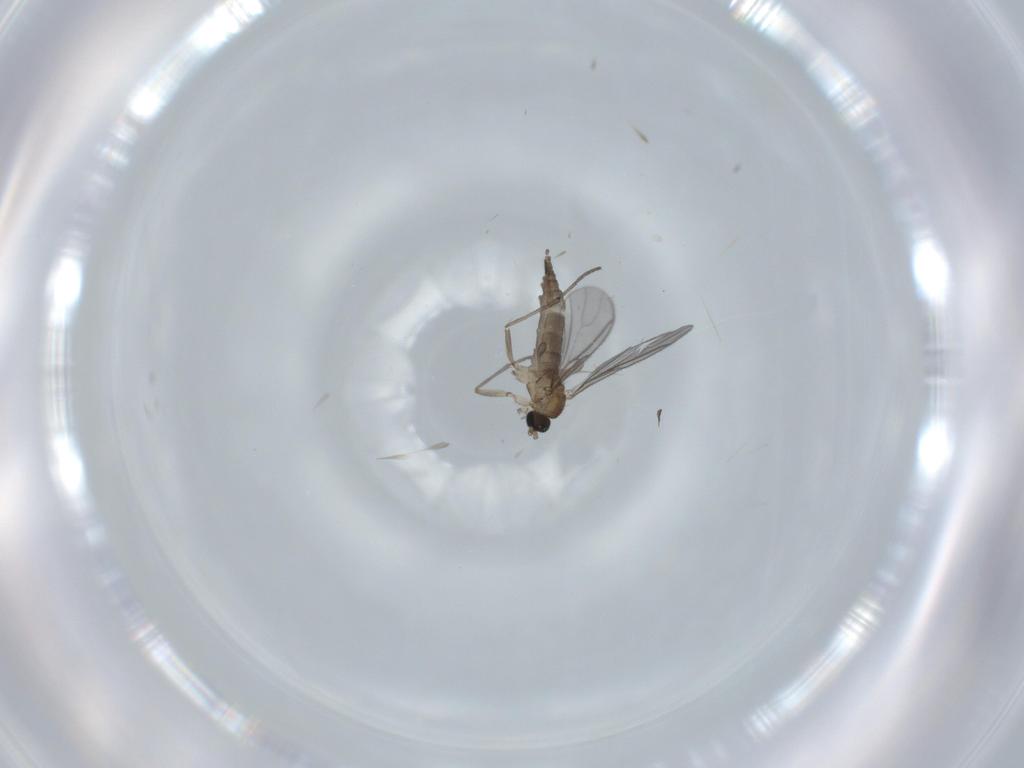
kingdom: Animalia
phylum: Arthropoda
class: Insecta
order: Diptera
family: Sciaridae
